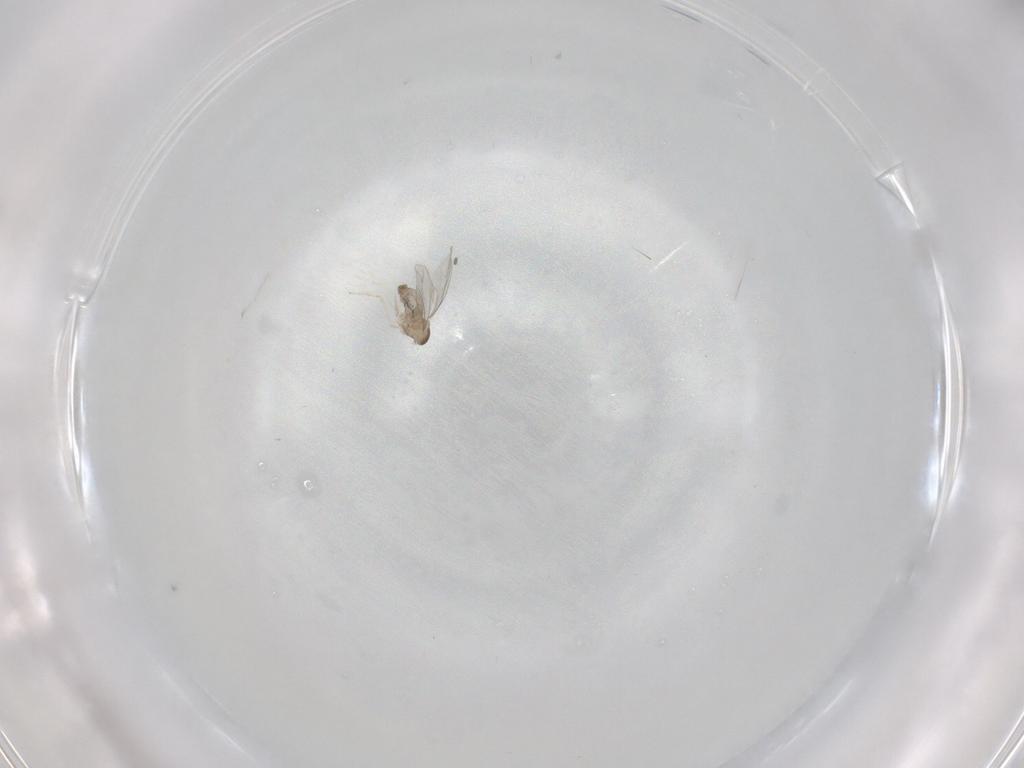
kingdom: Animalia
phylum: Arthropoda
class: Insecta
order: Diptera
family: Cecidomyiidae
